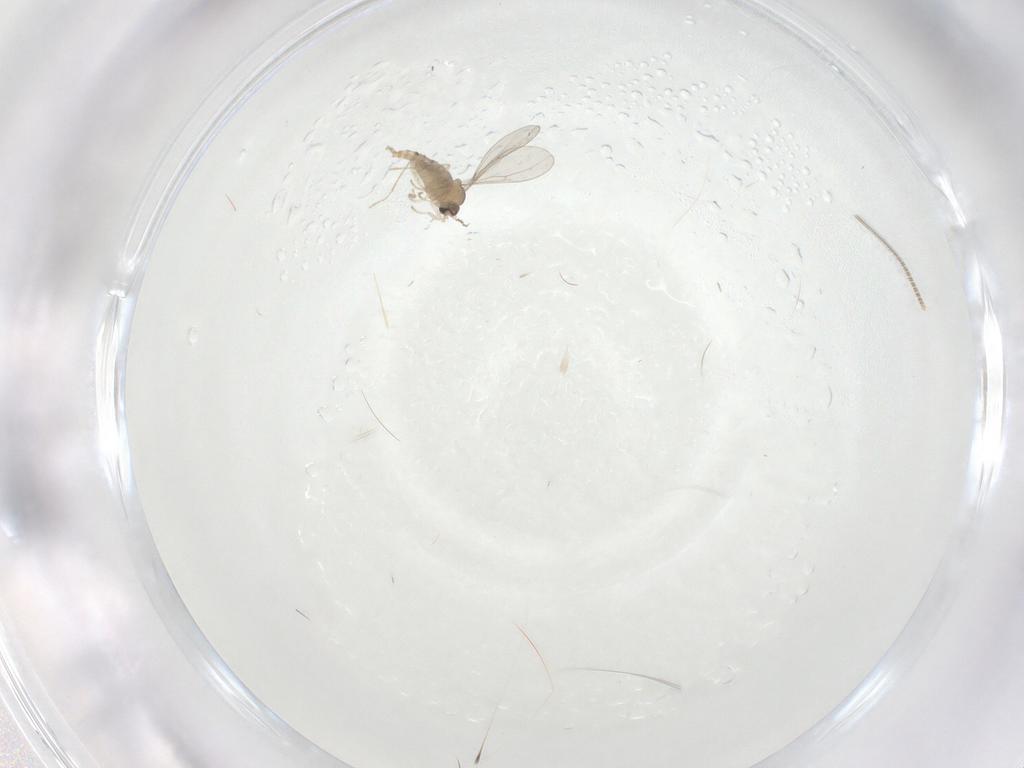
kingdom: Animalia
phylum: Arthropoda
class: Insecta
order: Diptera
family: Cecidomyiidae
